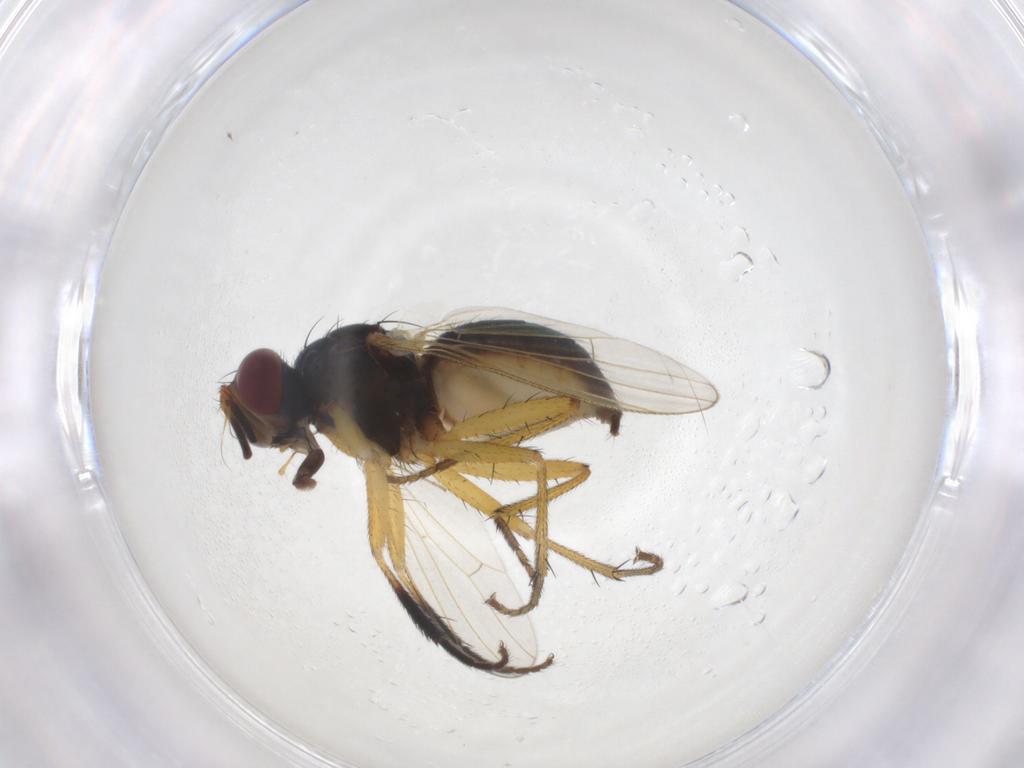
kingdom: Animalia
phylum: Arthropoda
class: Insecta
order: Diptera
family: Muscidae
